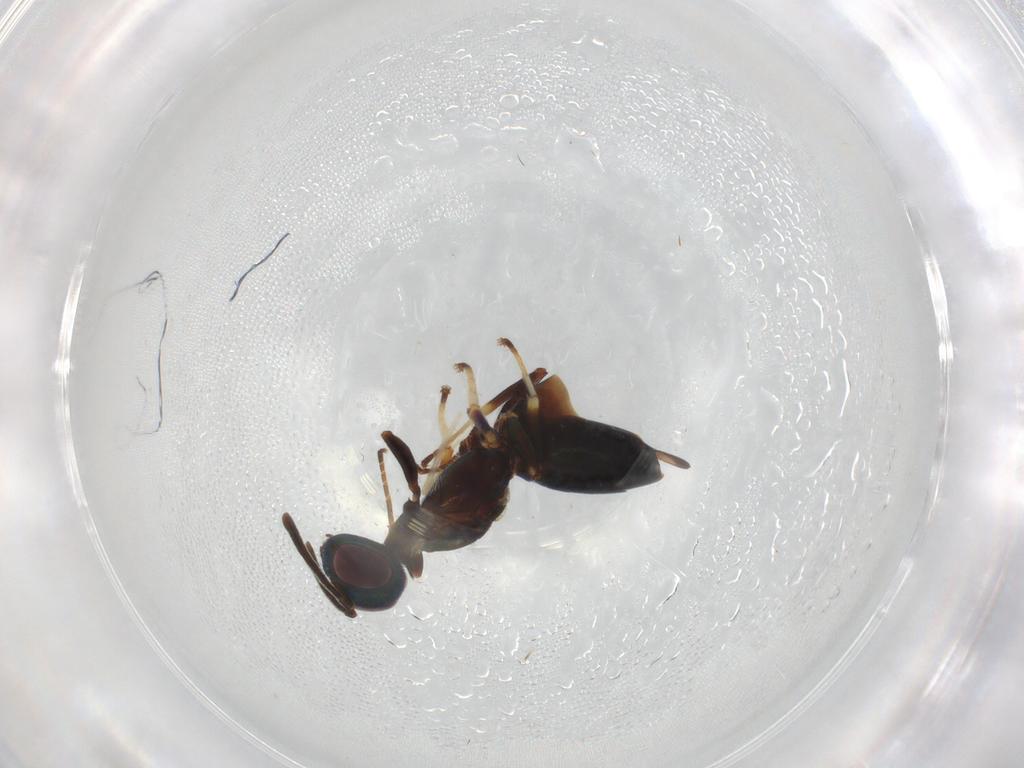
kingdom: Animalia
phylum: Arthropoda
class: Insecta
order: Hymenoptera
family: Eupelmidae
